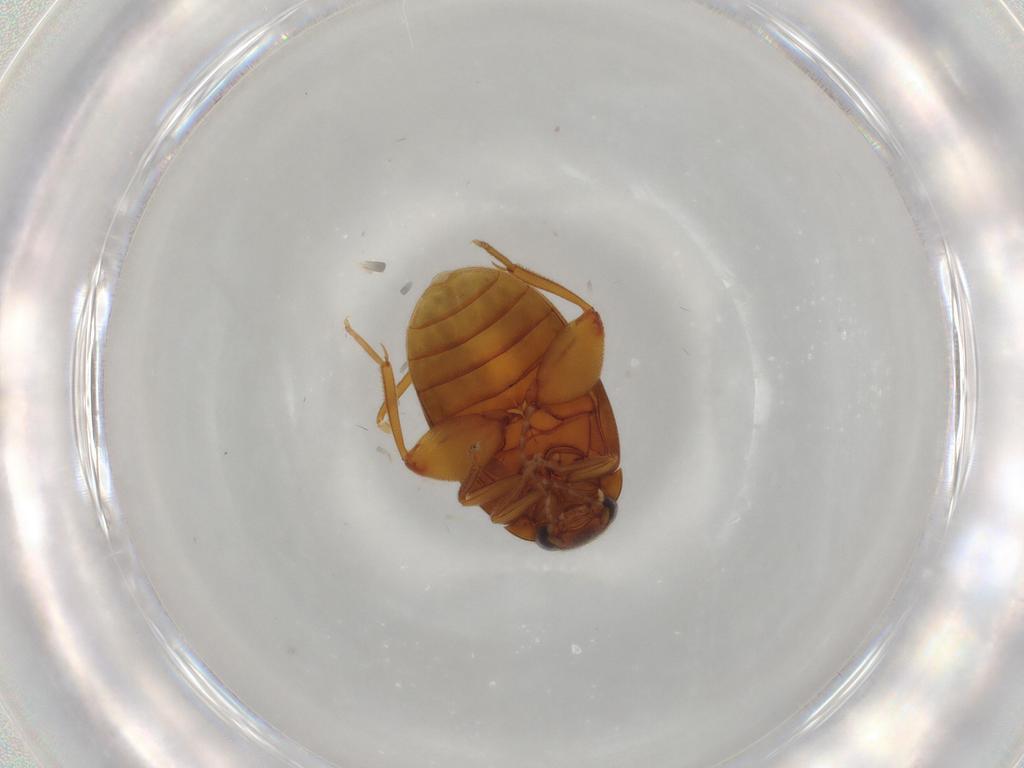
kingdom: Animalia
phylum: Arthropoda
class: Insecta
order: Coleoptera
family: Scirtidae
